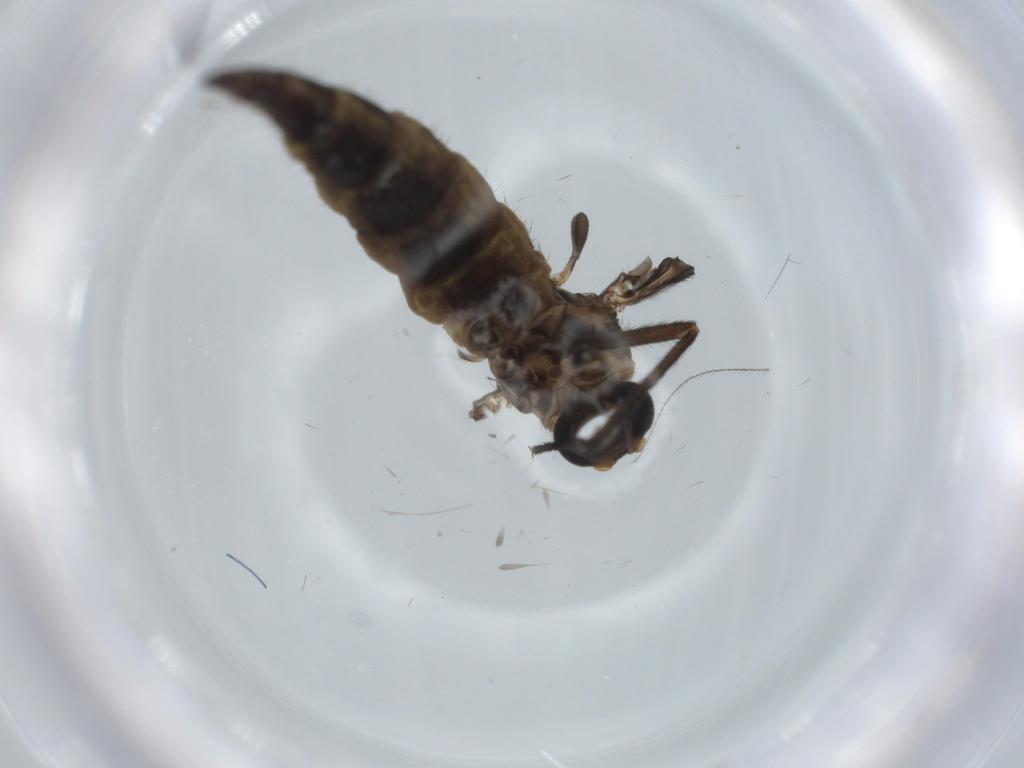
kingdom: Animalia
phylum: Arthropoda
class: Insecta
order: Diptera
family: Sciaridae
